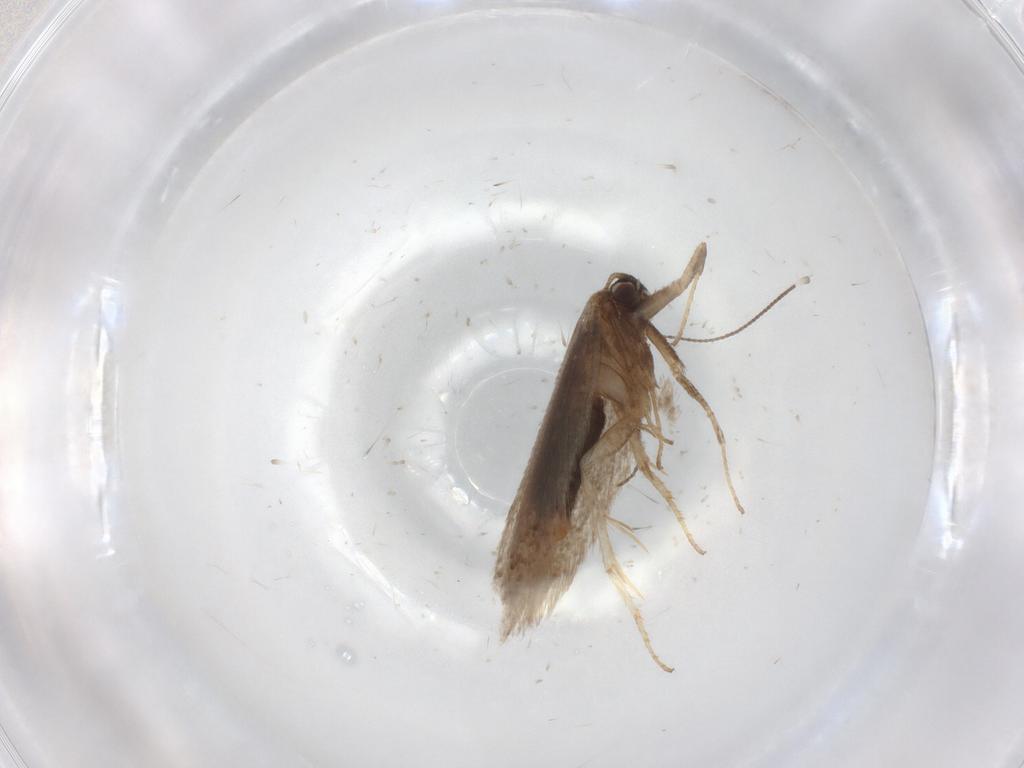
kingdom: Animalia
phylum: Arthropoda
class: Insecta
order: Lepidoptera
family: Nepticulidae
